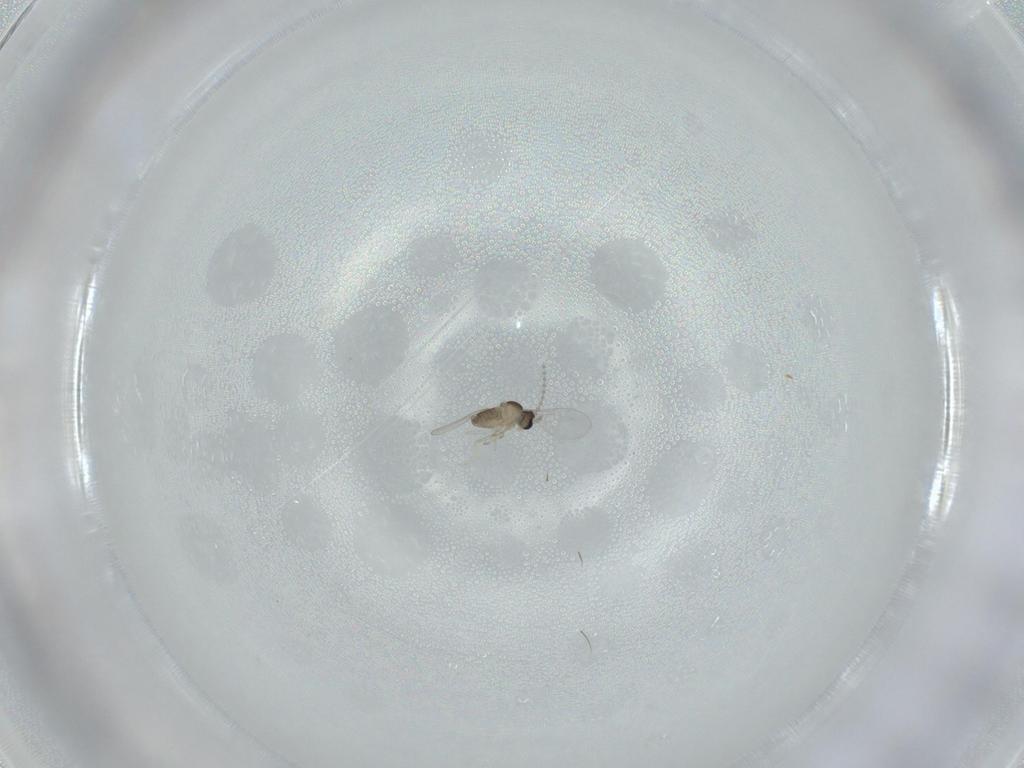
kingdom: Animalia
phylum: Arthropoda
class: Insecta
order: Diptera
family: Cecidomyiidae
